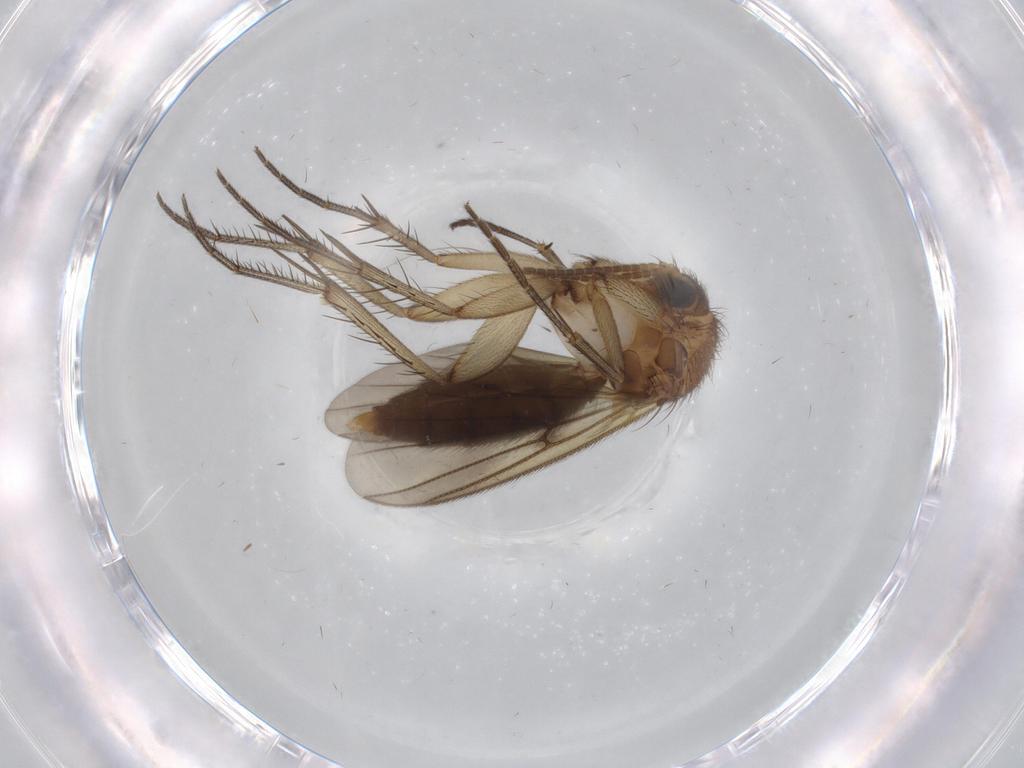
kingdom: Animalia
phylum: Arthropoda
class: Insecta
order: Diptera
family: Cecidomyiidae
